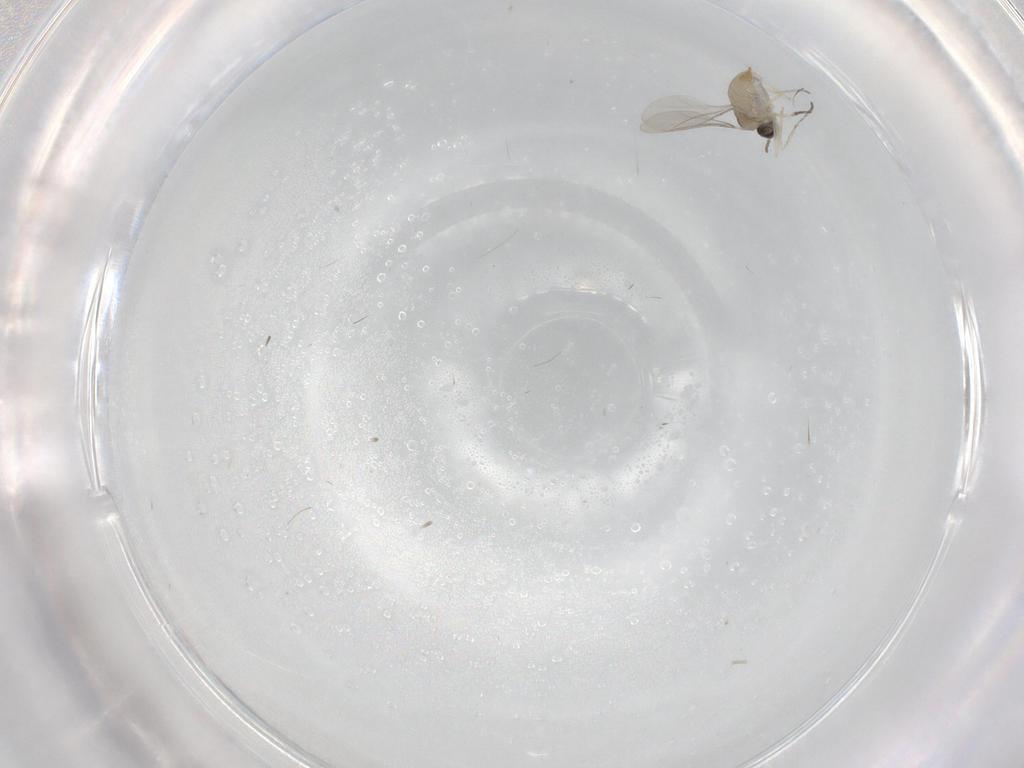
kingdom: Animalia
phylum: Arthropoda
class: Insecta
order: Diptera
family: Cecidomyiidae
